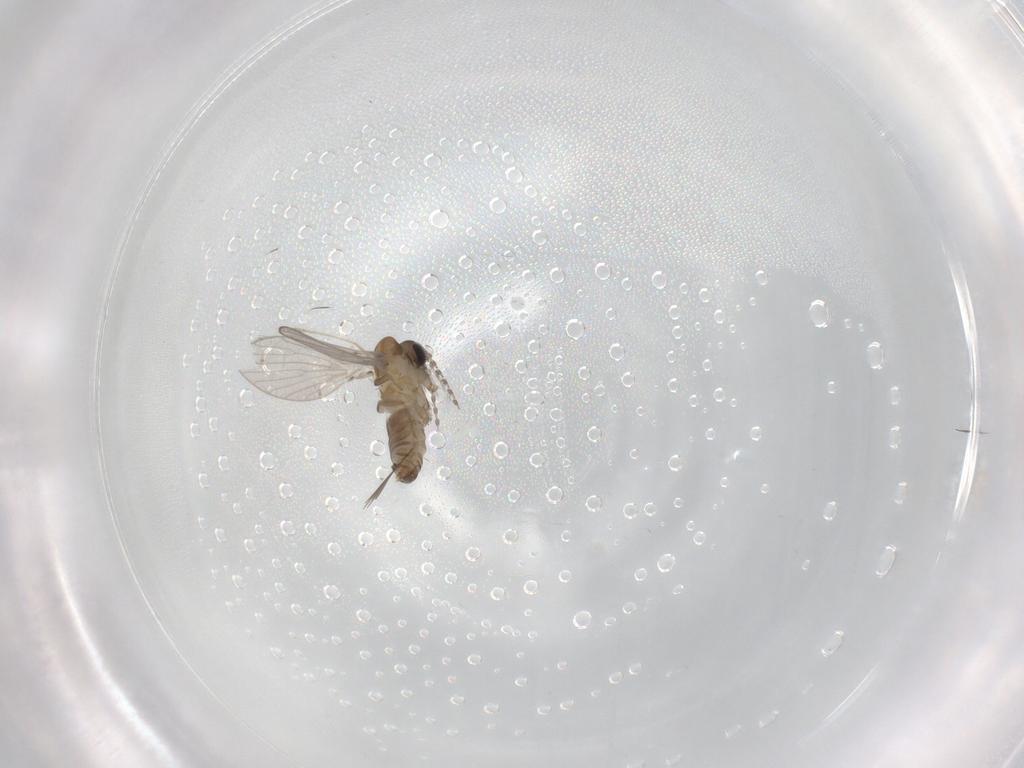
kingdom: Animalia
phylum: Arthropoda
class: Insecta
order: Diptera
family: Psychodidae
